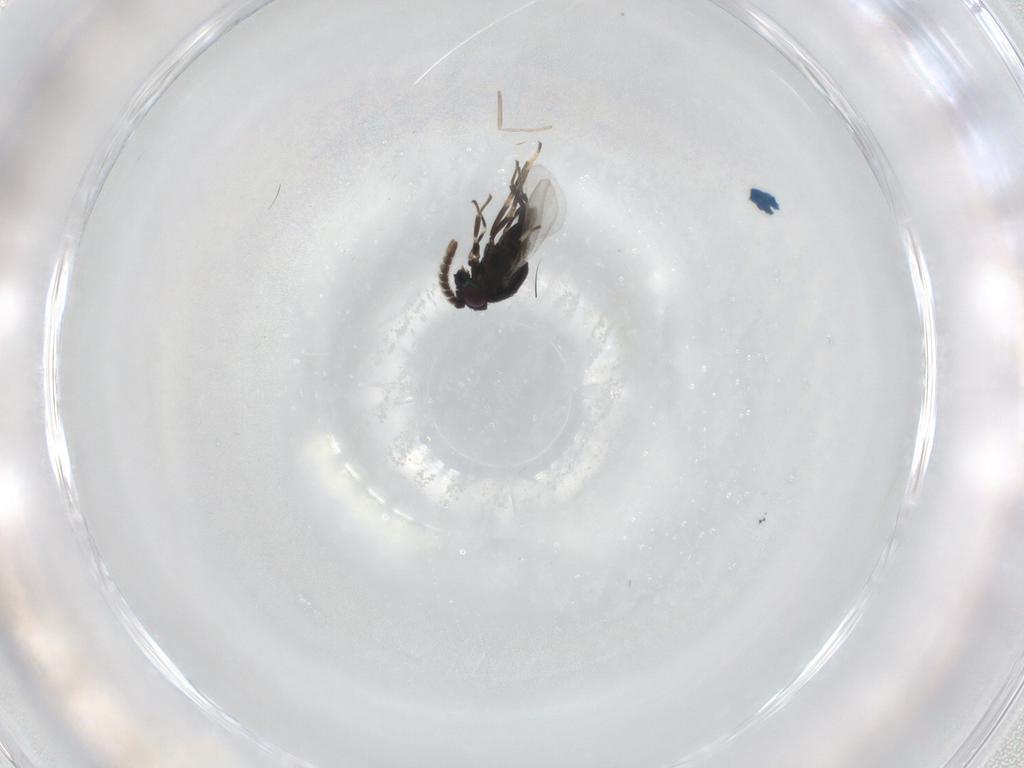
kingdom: Animalia
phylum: Arthropoda
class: Insecta
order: Hymenoptera
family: Encyrtidae
